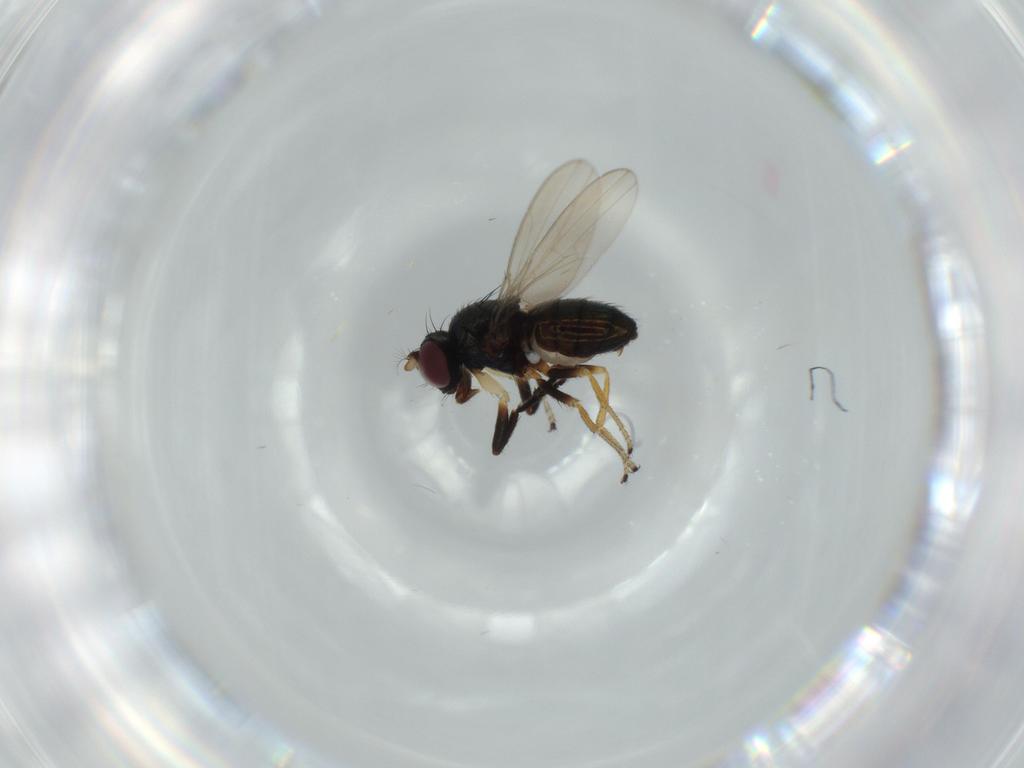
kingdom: Animalia
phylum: Arthropoda
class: Insecta
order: Diptera
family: Ephydridae
